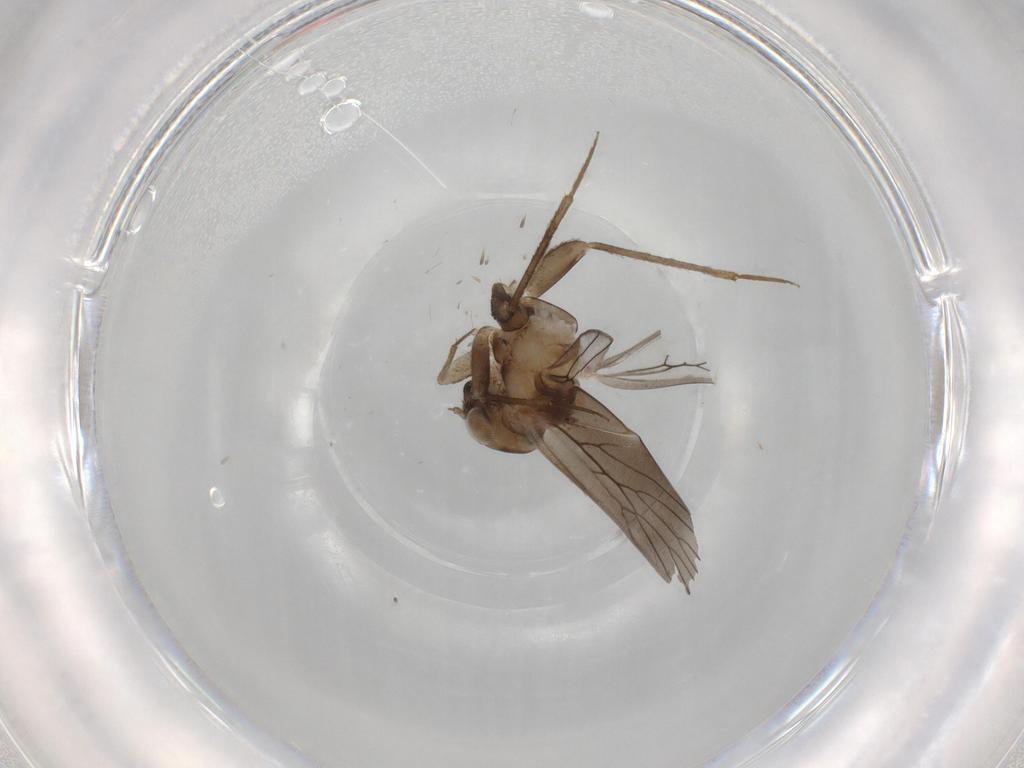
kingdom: Animalia
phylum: Arthropoda
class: Insecta
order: Psocodea
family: Lepidopsocidae
